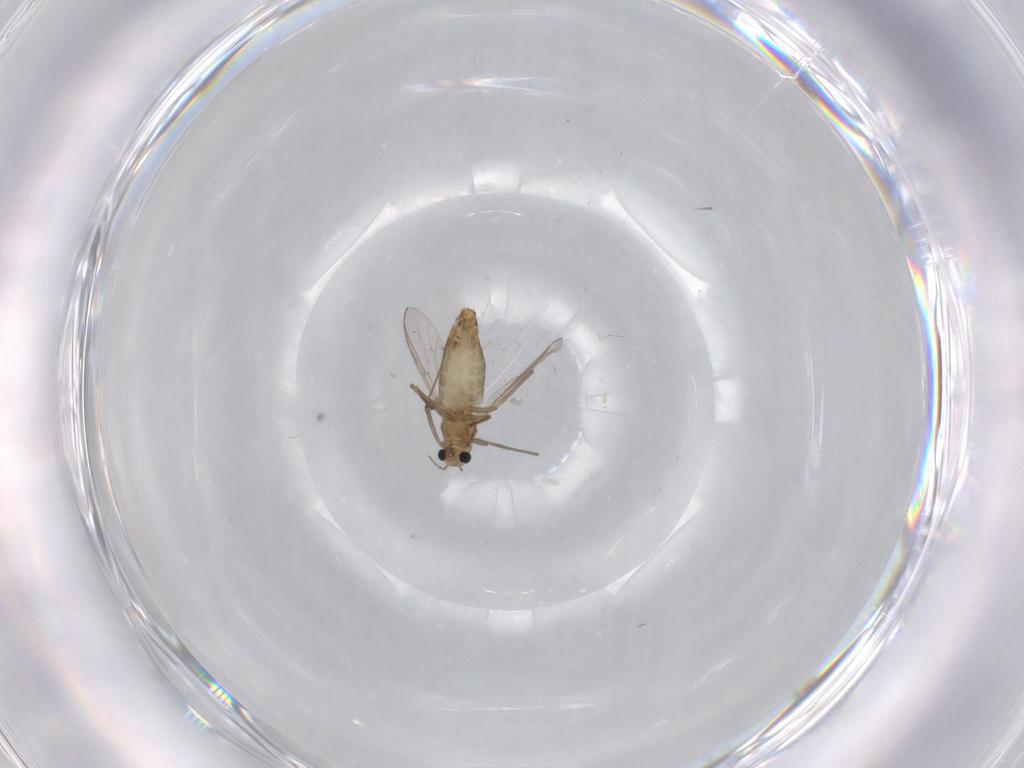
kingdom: Animalia
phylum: Arthropoda
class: Insecta
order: Diptera
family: Chironomidae
